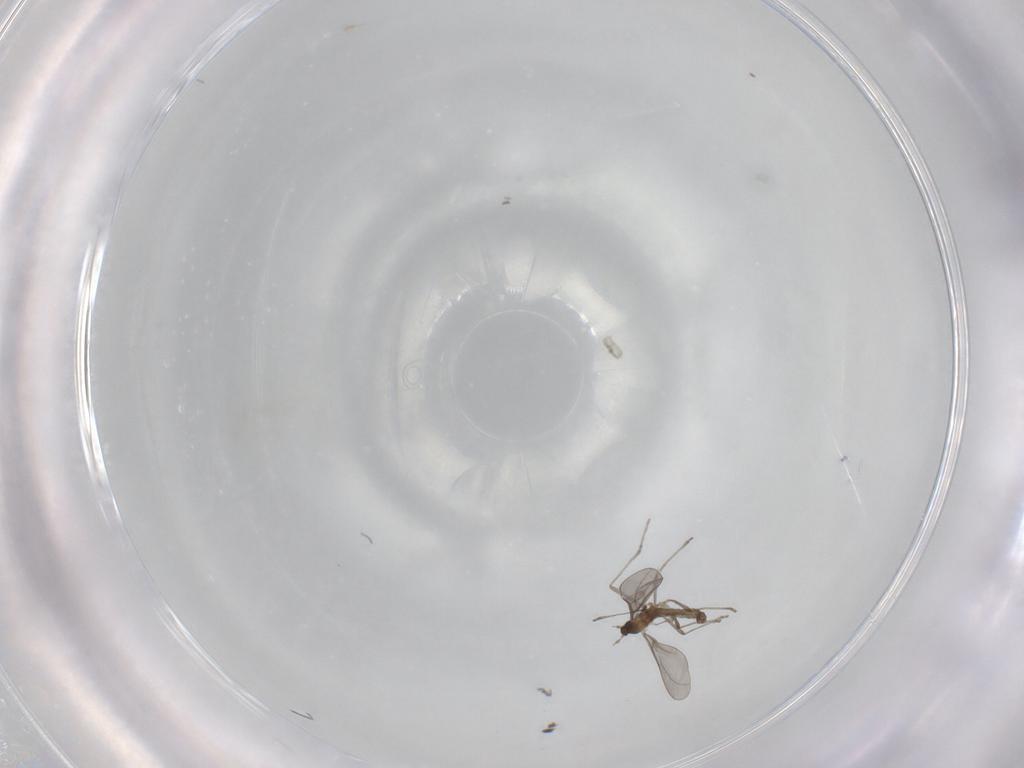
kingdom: Animalia
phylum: Arthropoda
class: Insecta
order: Diptera
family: Cecidomyiidae
